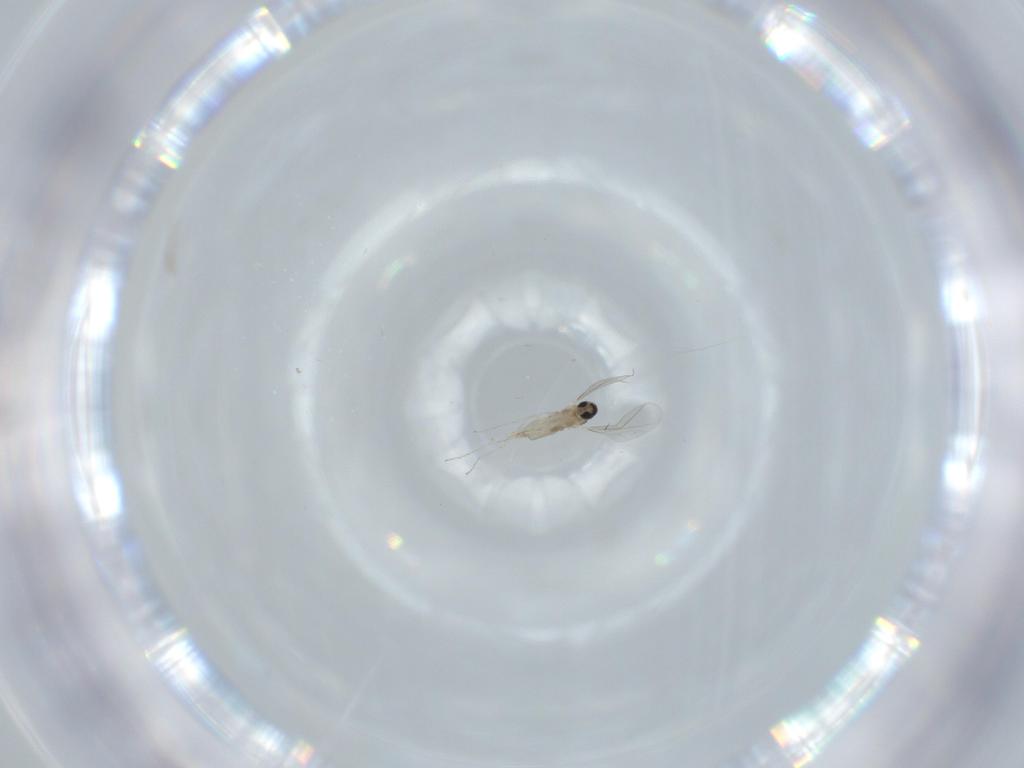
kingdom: Animalia
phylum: Arthropoda
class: Insecta
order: Diptera
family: Cecidomyiidae
